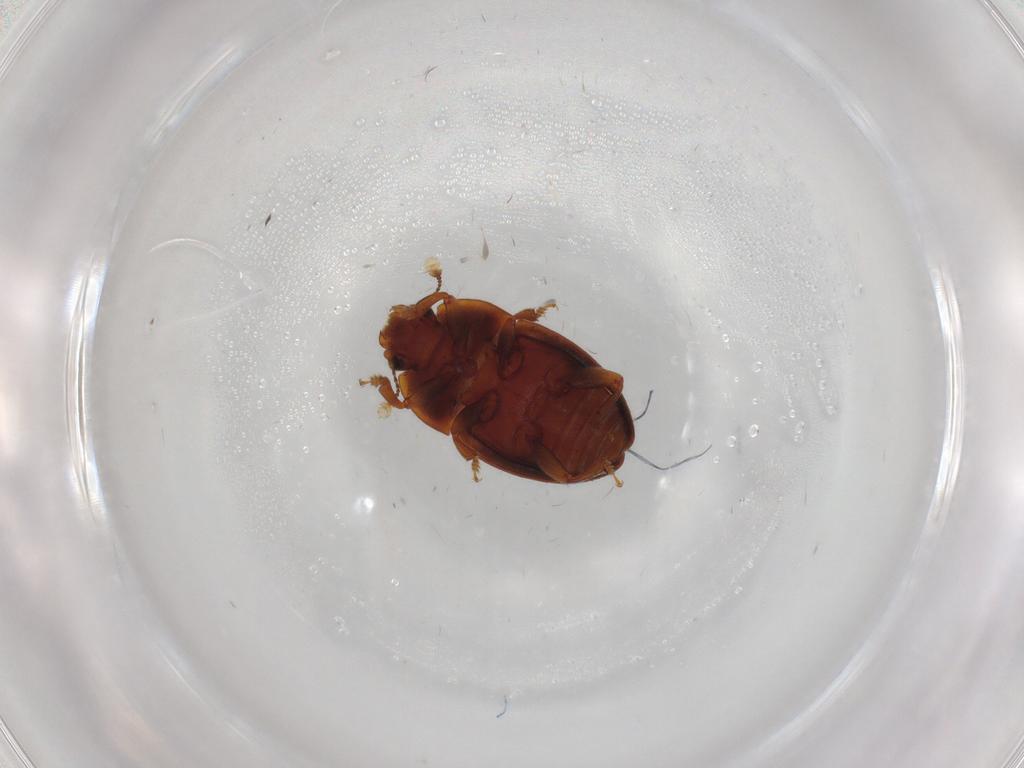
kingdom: Animalia
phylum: Arthropoda
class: Insecta
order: Coleoptera
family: Nitidulidae
